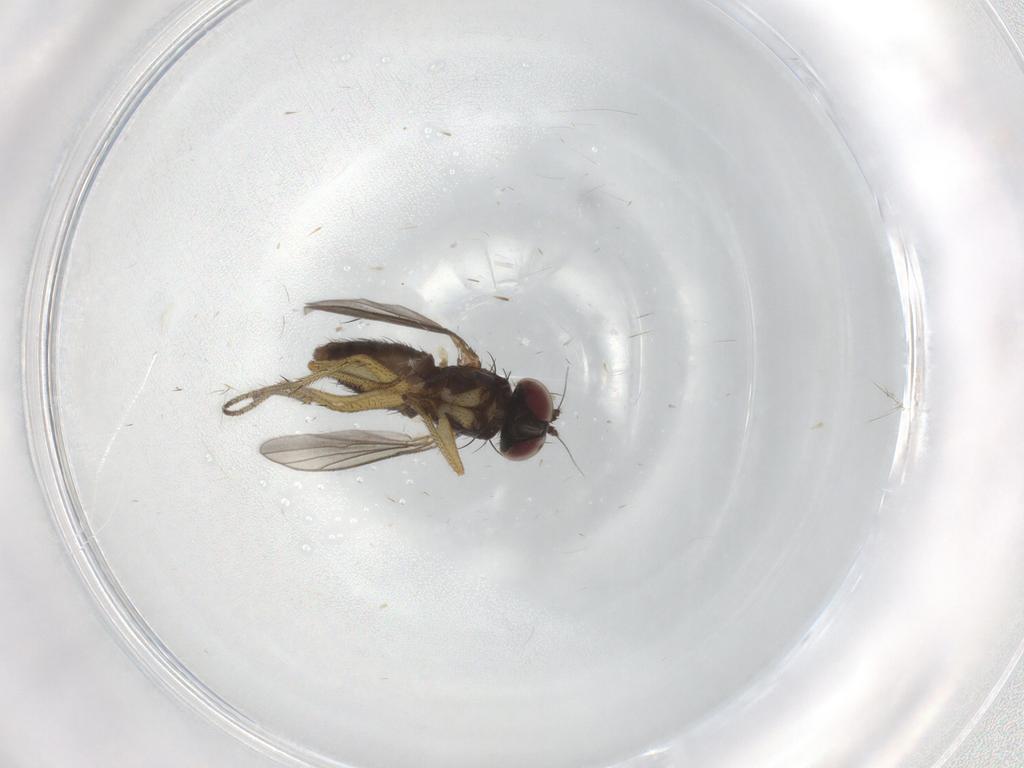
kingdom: Animalia
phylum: Arthropoda
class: Insecta
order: Diptera
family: Dolichopodidae
